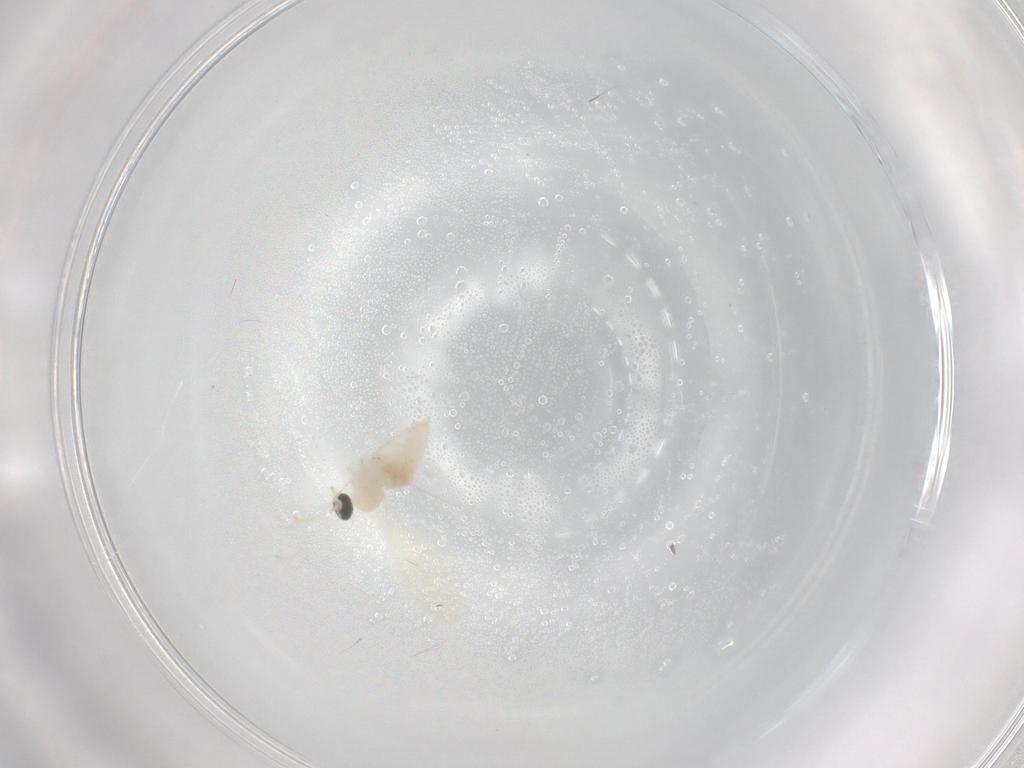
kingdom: Animalia
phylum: Arthropoda
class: Insecta
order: Diptera
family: Cecidomyiidae
